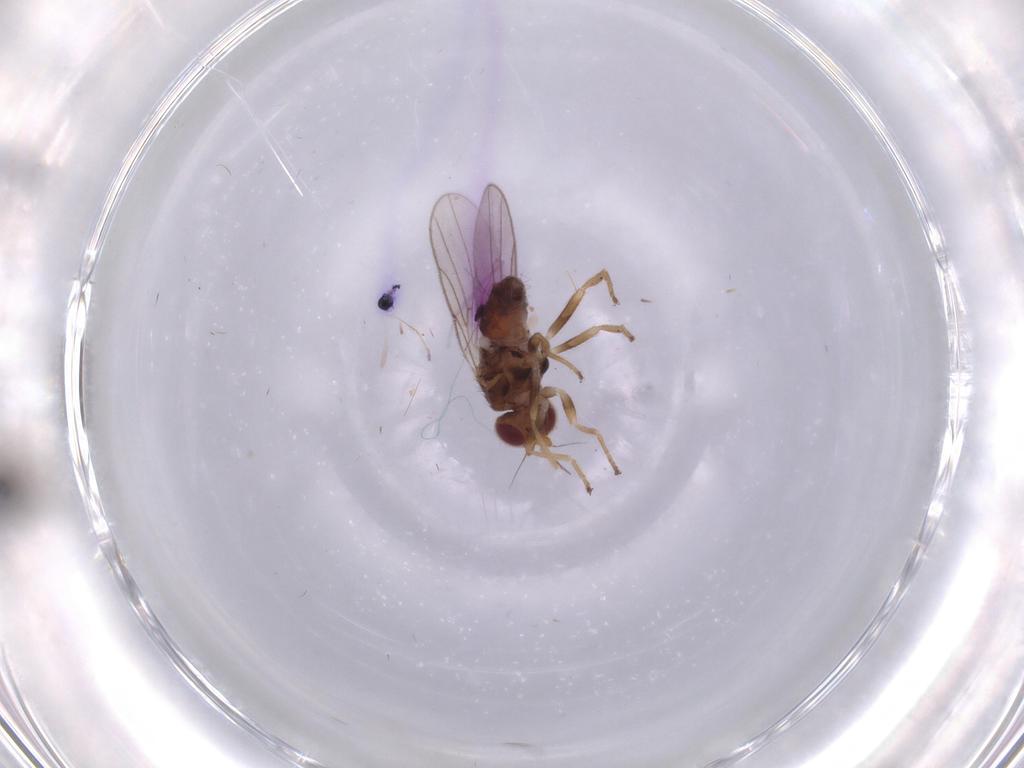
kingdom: Animalia
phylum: Arthropoda
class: Insecta
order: Diptera
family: Chloropidae
